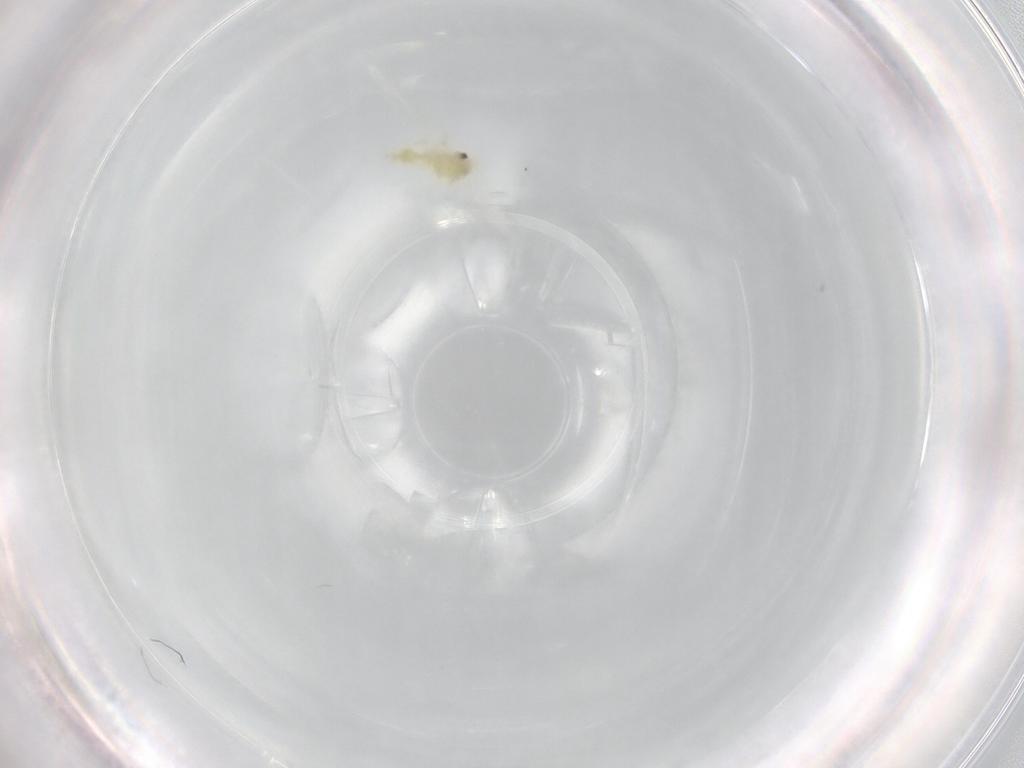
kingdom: Animalia
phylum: Arthropoda
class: Insecta
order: Hemiptera
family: Aleyrodidae
